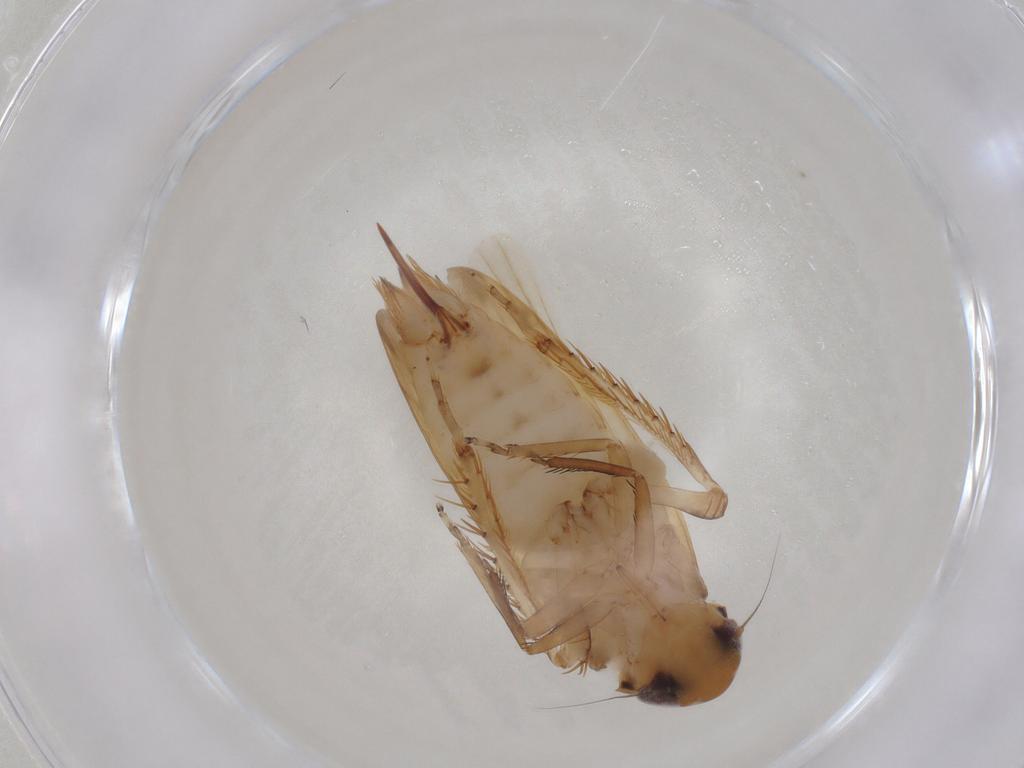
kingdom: Animalia
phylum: Arthropoda
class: Insecta
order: Hemiptera
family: Cicadellidae
